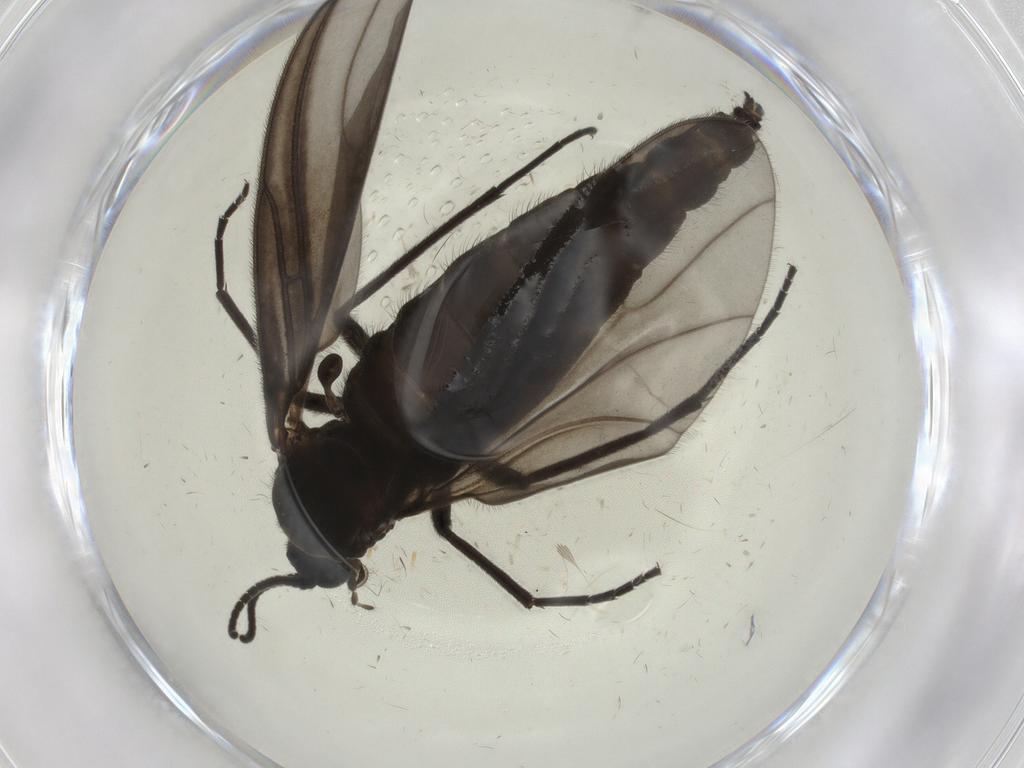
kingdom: Animalia
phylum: Arthropoda
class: Insecta
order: Diptera
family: Sciaridae
